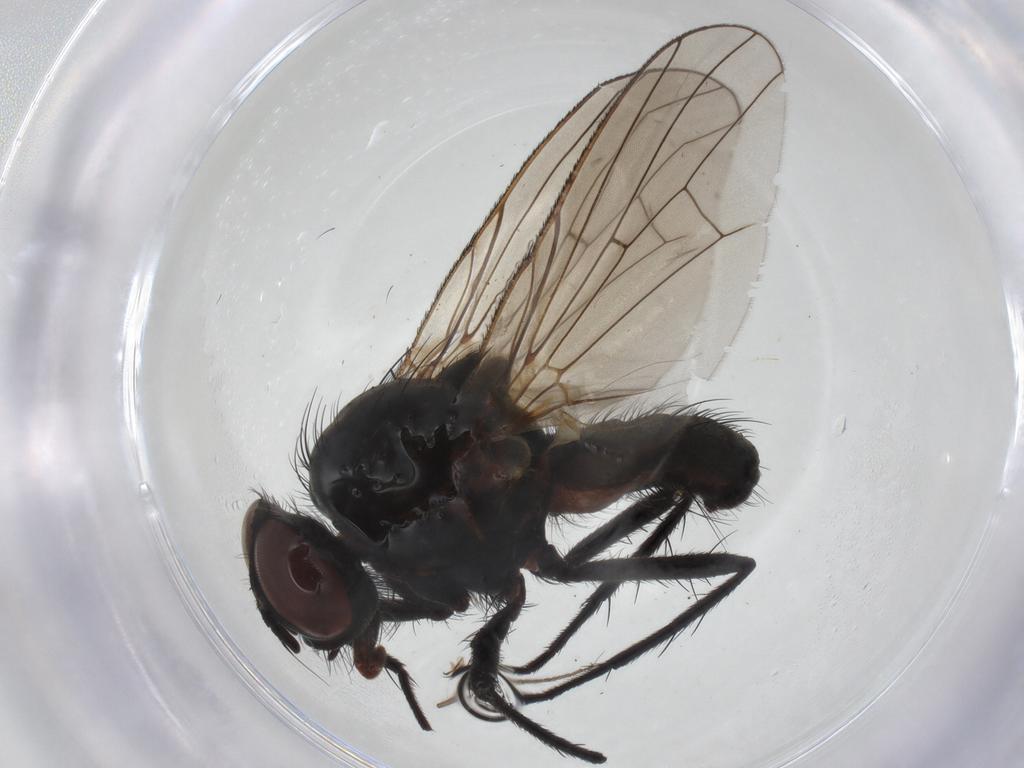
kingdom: Animalia
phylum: Arthropoda
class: Insecta
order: Diptera
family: Anthomyiidae
